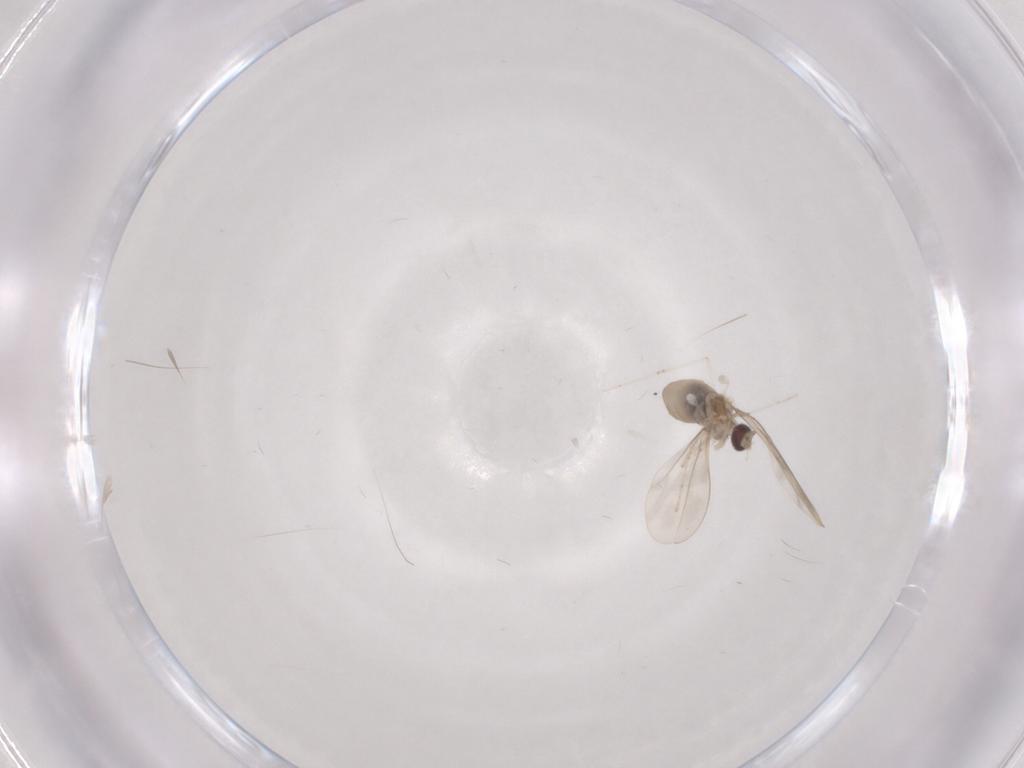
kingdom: Animalia
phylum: Arthropoda
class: Insecta
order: Diptera
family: Cecidomyiidae
